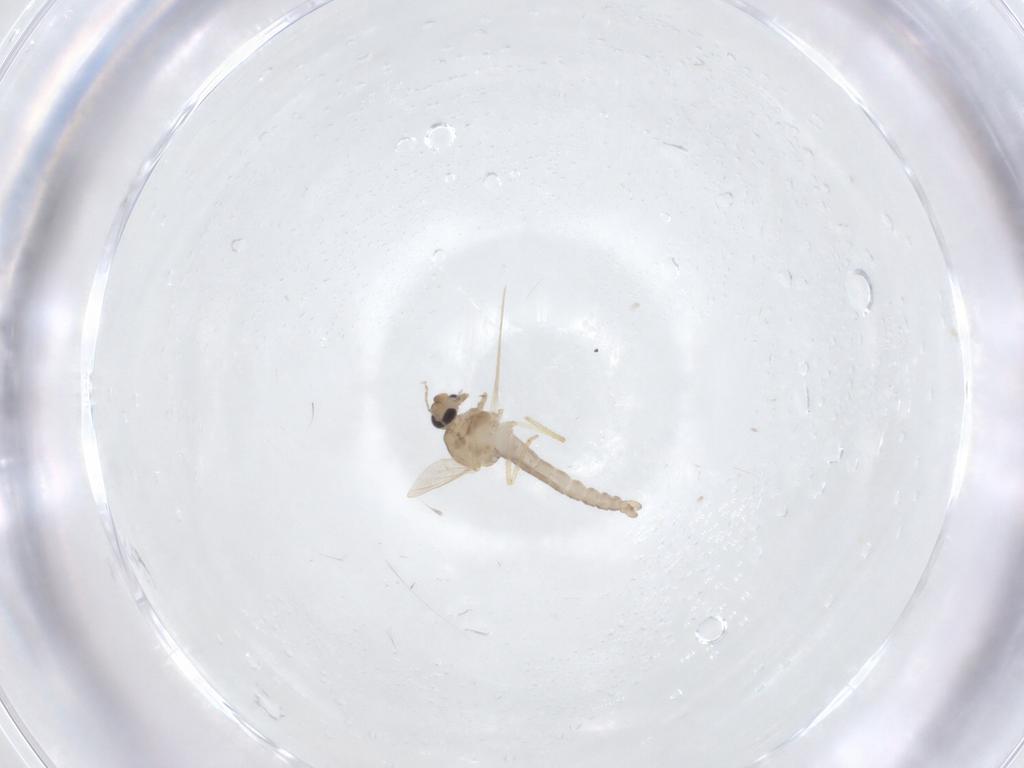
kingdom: Animalia
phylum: Arthropoda
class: Insecta
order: Diptera
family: Ceratopogonidae
